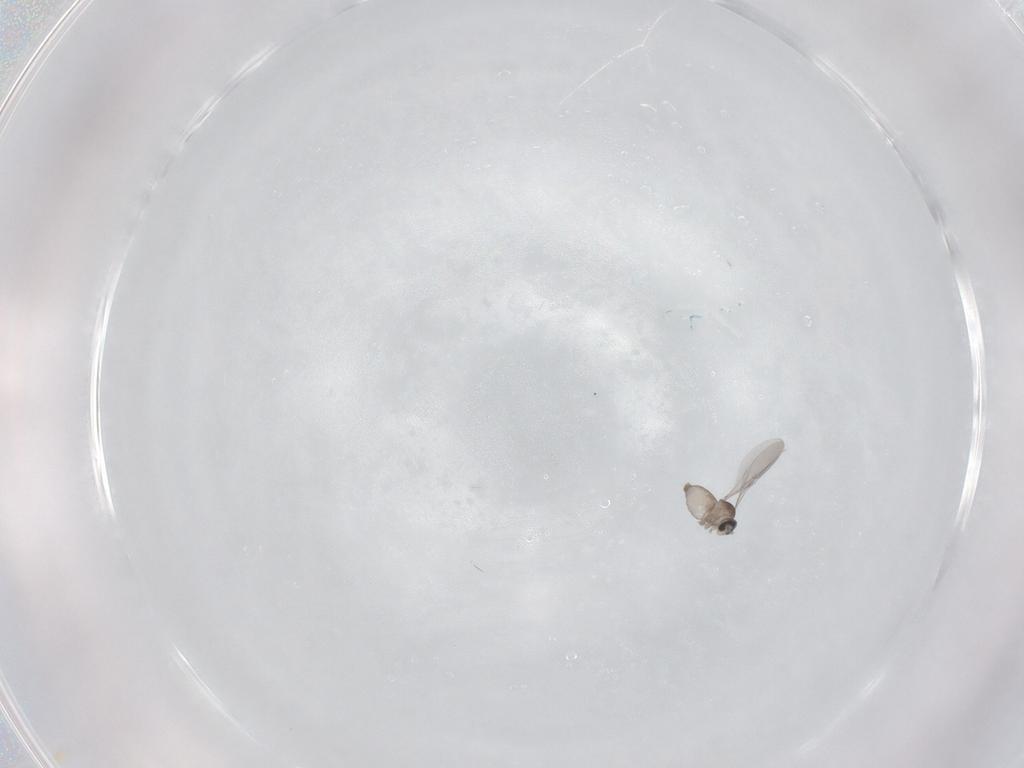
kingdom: Animalia
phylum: Arthropoda
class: Insecta
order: Diptera
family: Cecidomyiidae
